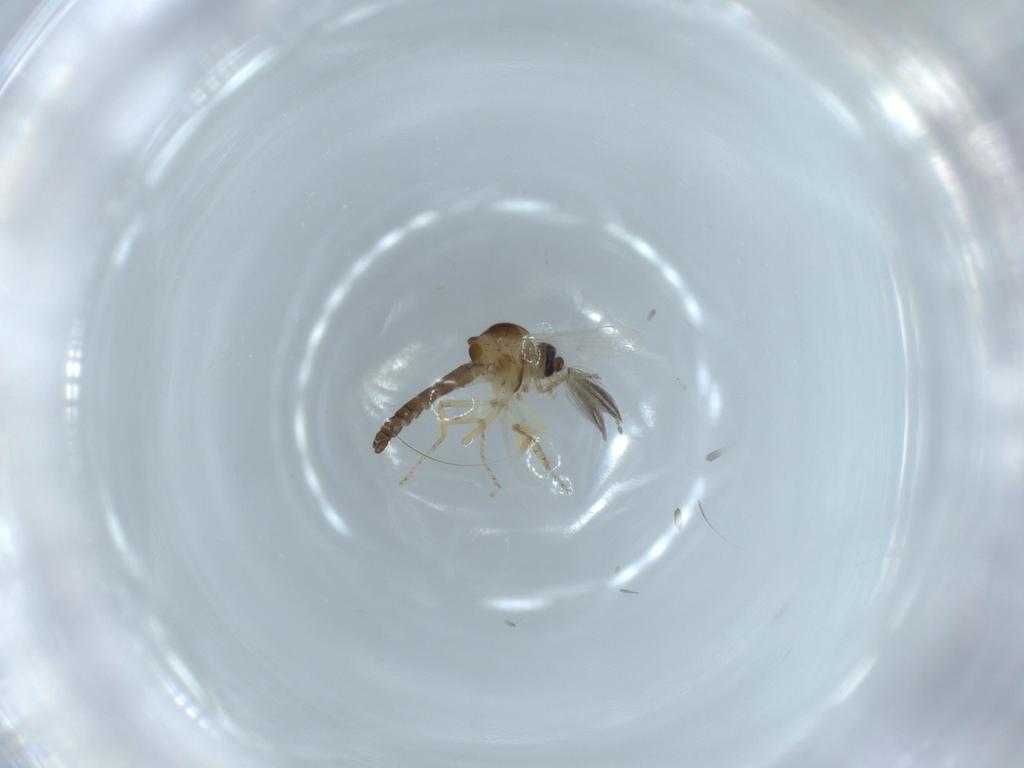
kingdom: Animalia
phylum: Arthropoda
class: Insecta
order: Diptera
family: Ceratopogonidae
